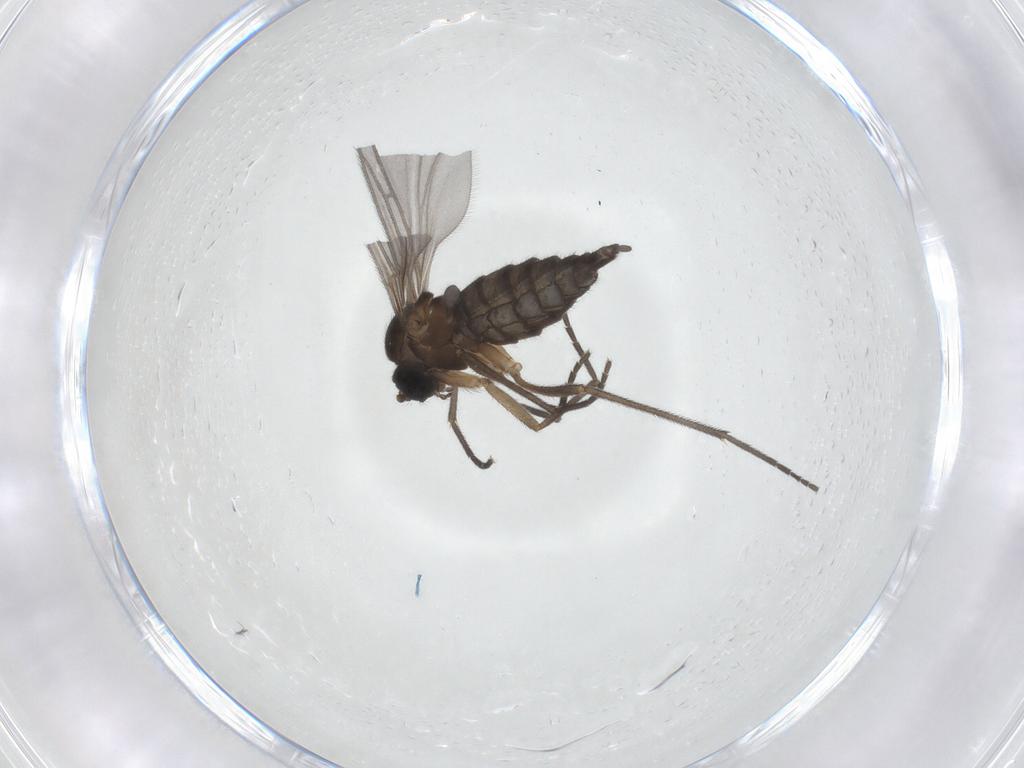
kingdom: Animalia
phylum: Arthropoda
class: Insecta
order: Diptera
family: Sciaridae
